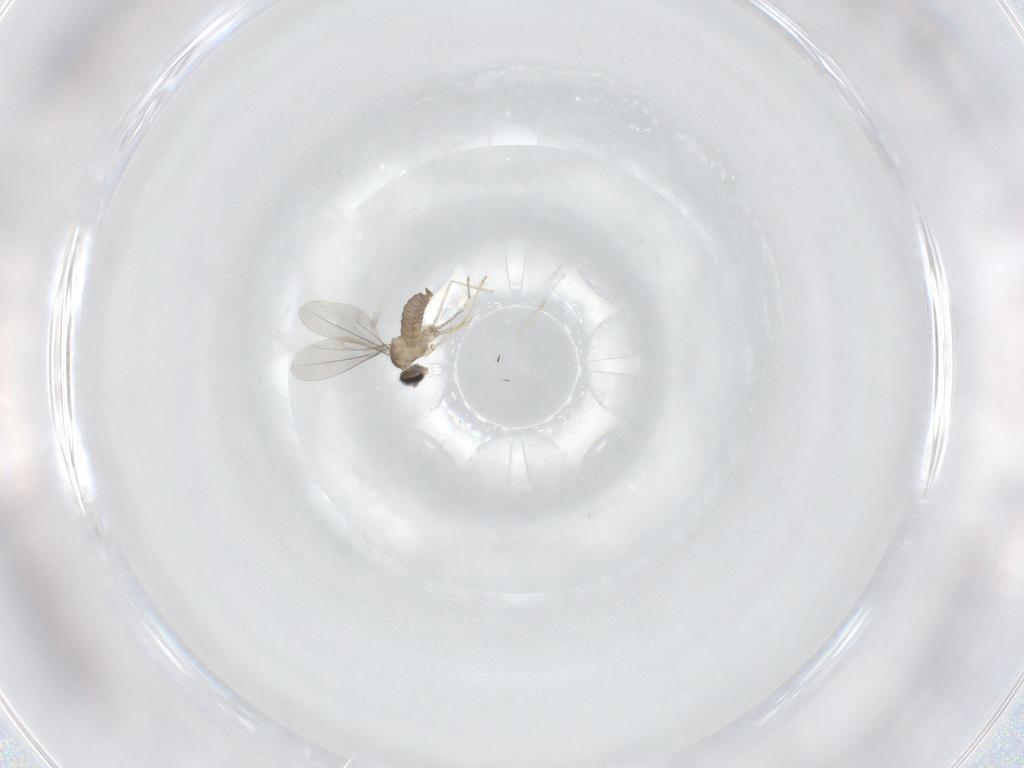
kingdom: Animalia
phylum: Arthropoda
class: Insecta
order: Diptera
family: Cecidomyiidae
